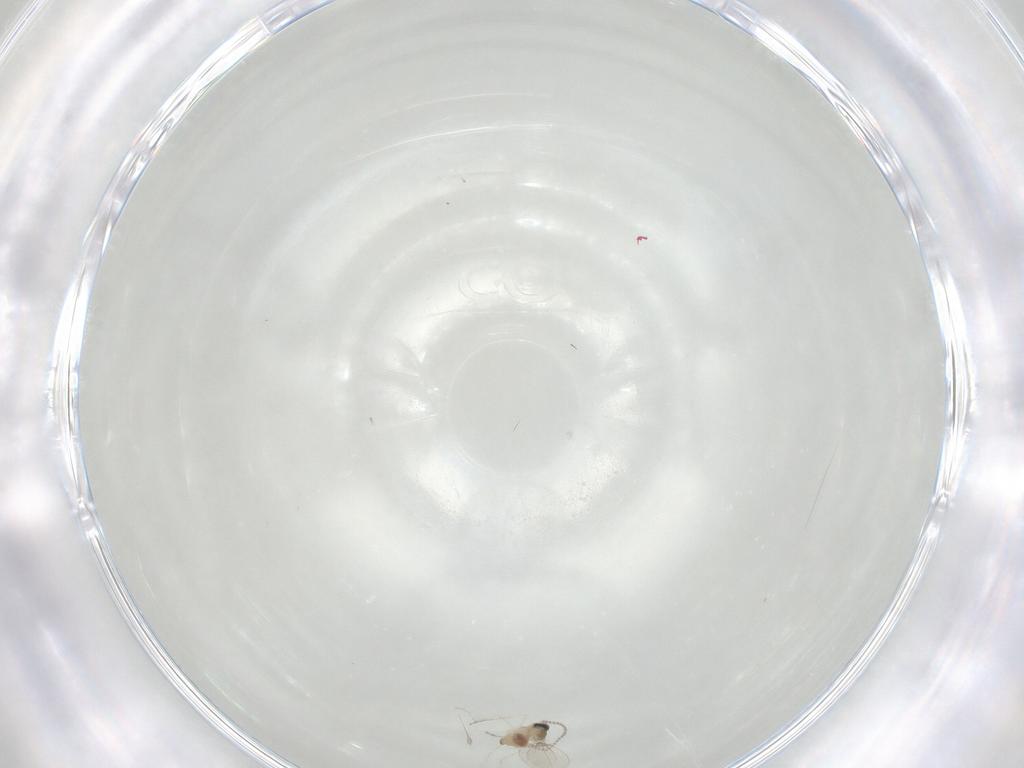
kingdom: Animalia
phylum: Arthropoda
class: Insecta
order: Diptera
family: Cecidomyiidae
